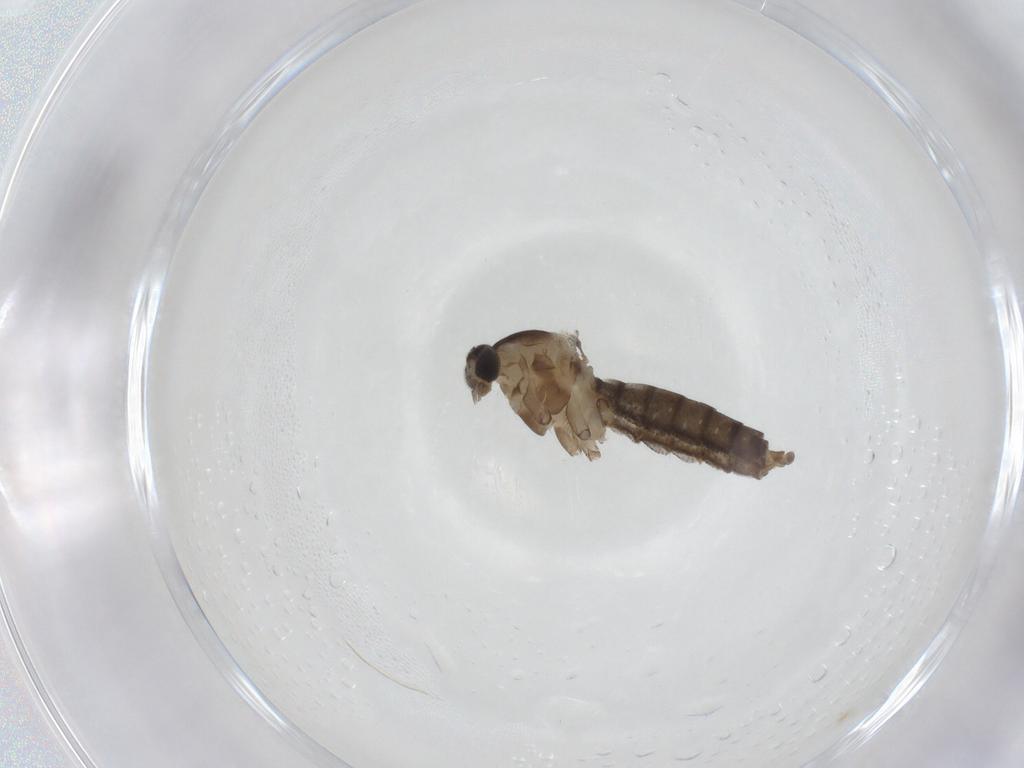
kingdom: Animalia
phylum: Arthropoda
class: Insecta
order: Diptera
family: Cecidomyiidae
